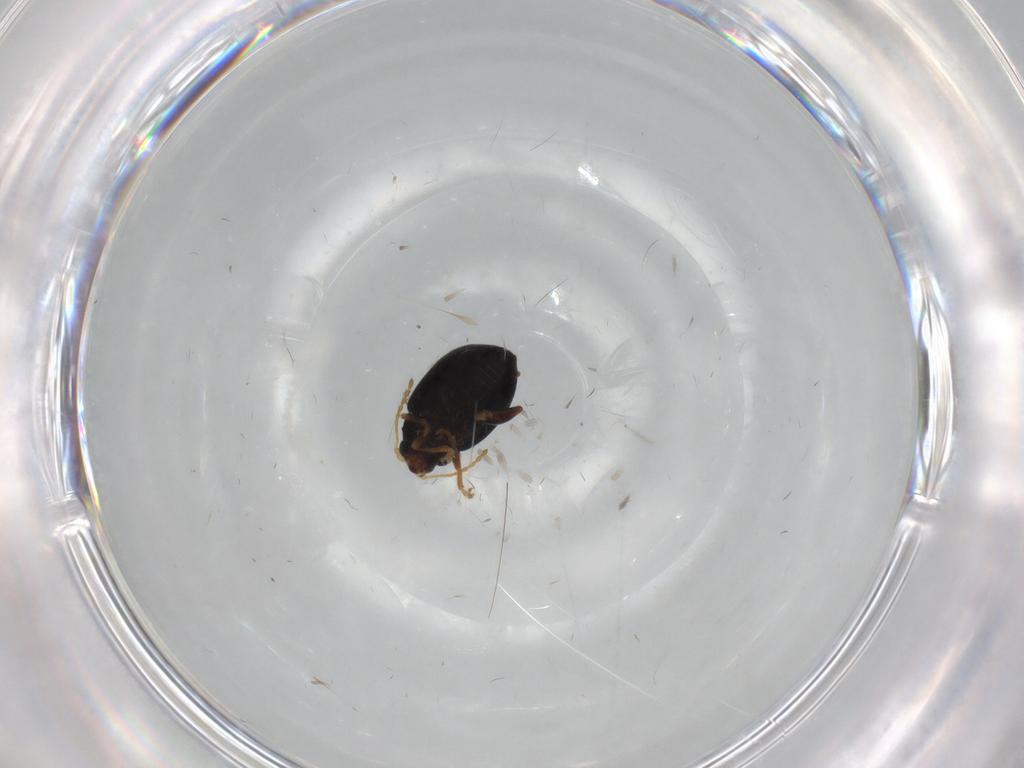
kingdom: Animalia
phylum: Arthropoda
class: Insecta
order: Coleoptera
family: Chrysomelidae
